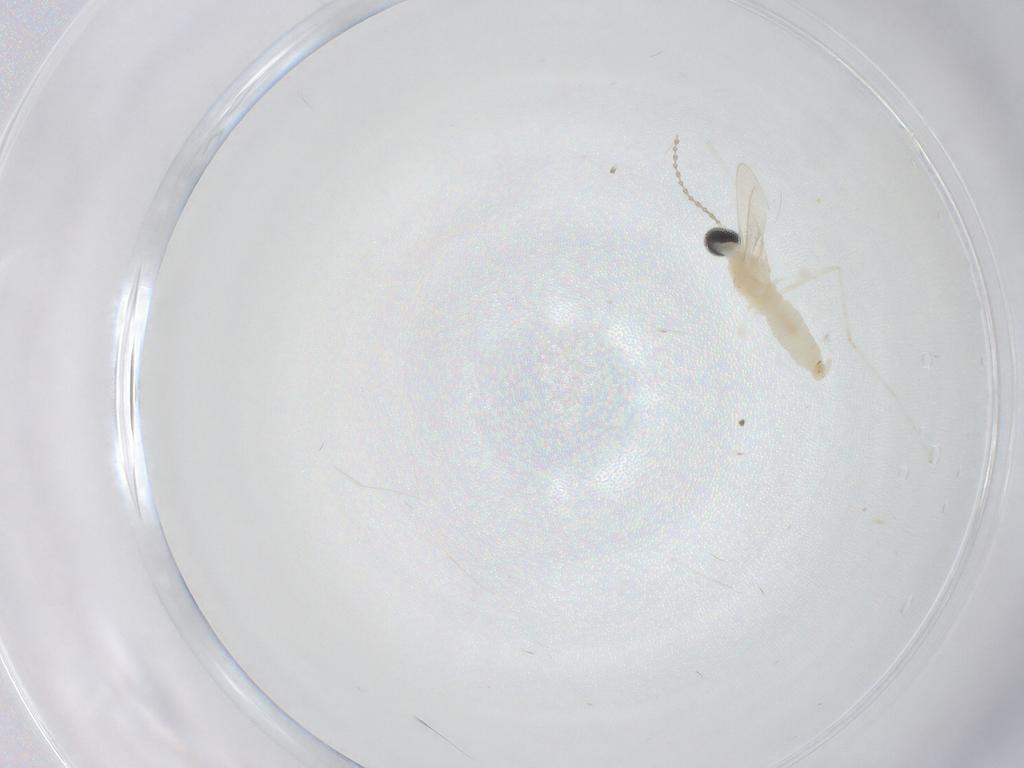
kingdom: Animalia
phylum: Arthropoda
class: Insecta
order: Diptera
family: Cecidomyiidae
